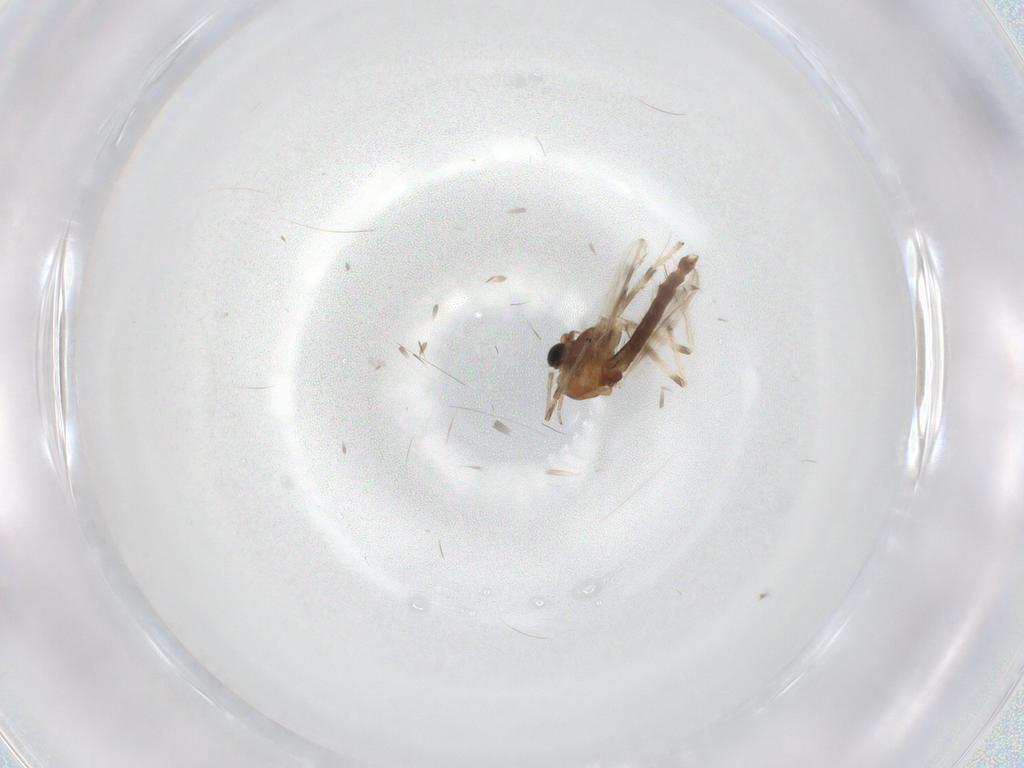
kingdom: Animalia
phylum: Arthropoda
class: Insecta
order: Diptera
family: Chironomidae
